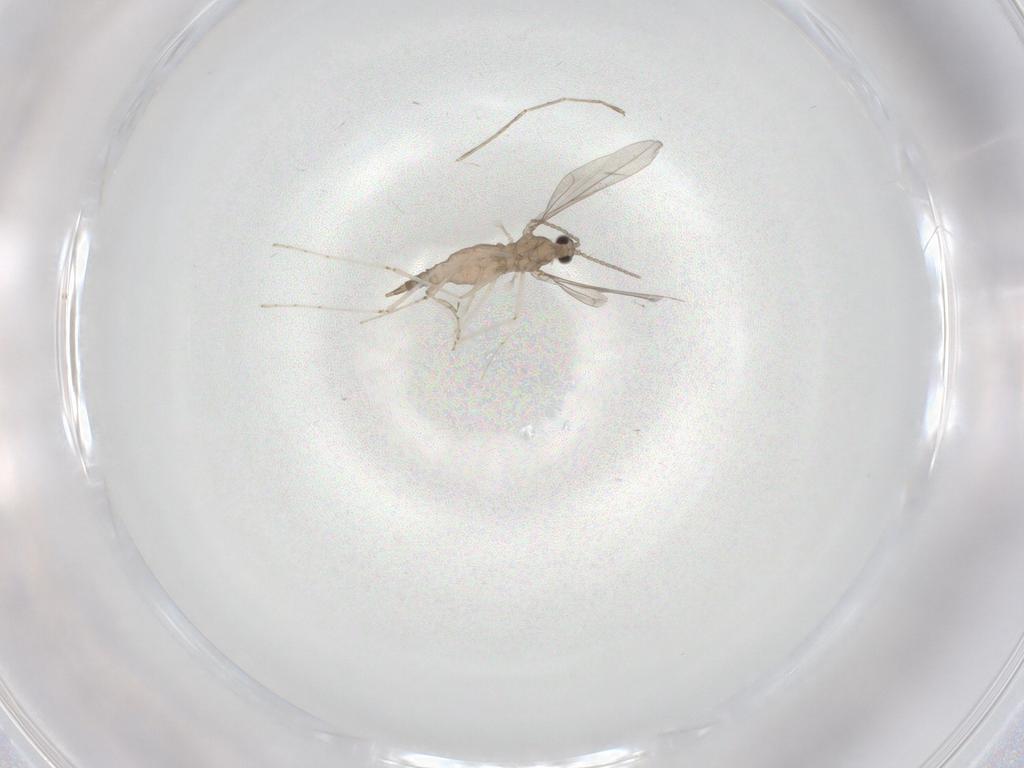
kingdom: Animalia
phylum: Arthropoda
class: Insecta
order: Diptera
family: Cecidomyiidae
